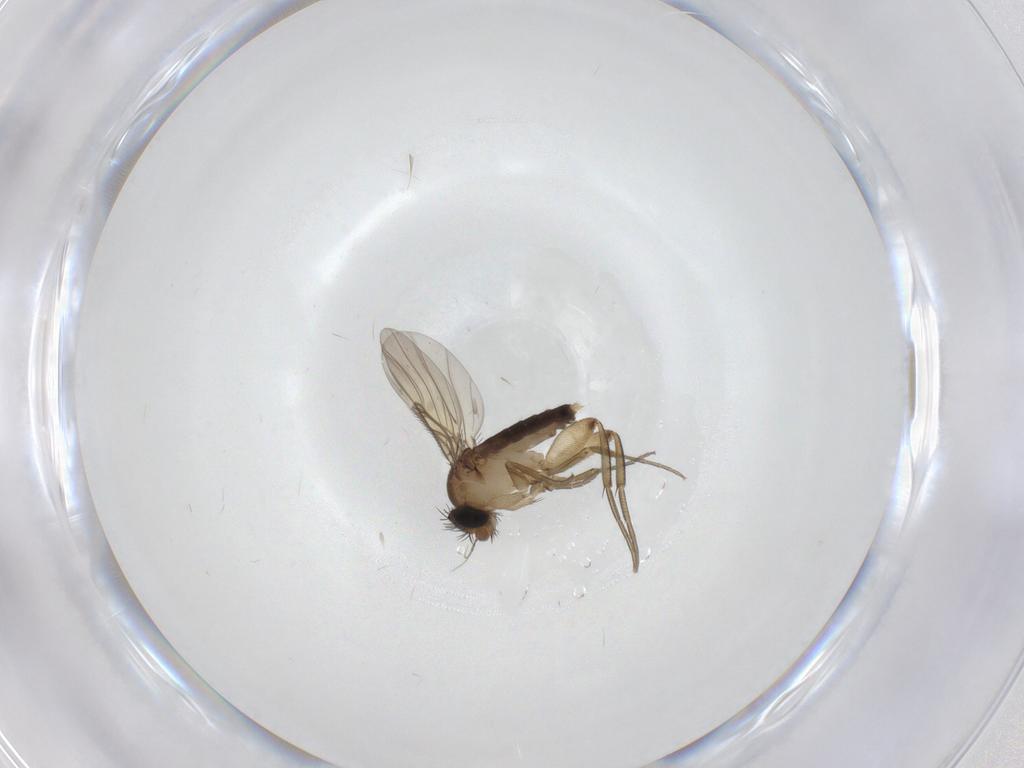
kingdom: Animalia
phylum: Arthropoda
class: Insecta
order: Diptera
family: Phoridae
